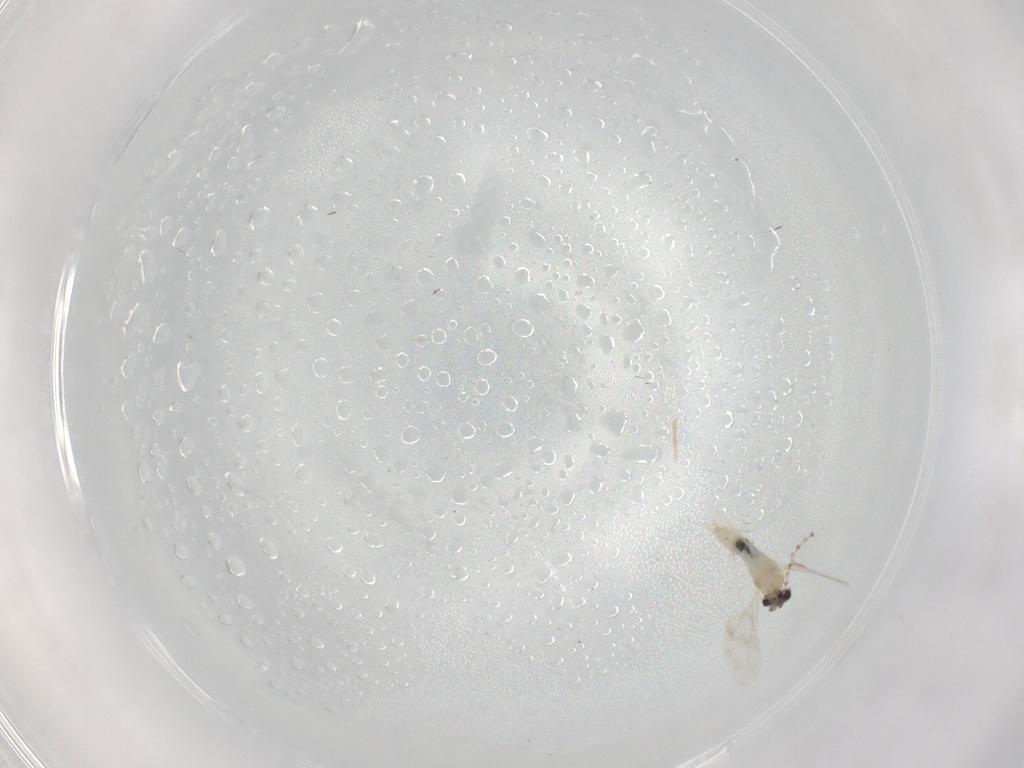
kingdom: Animalia
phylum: Arthropoda
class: Insecta
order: Diptera
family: Cecidomyiidae
